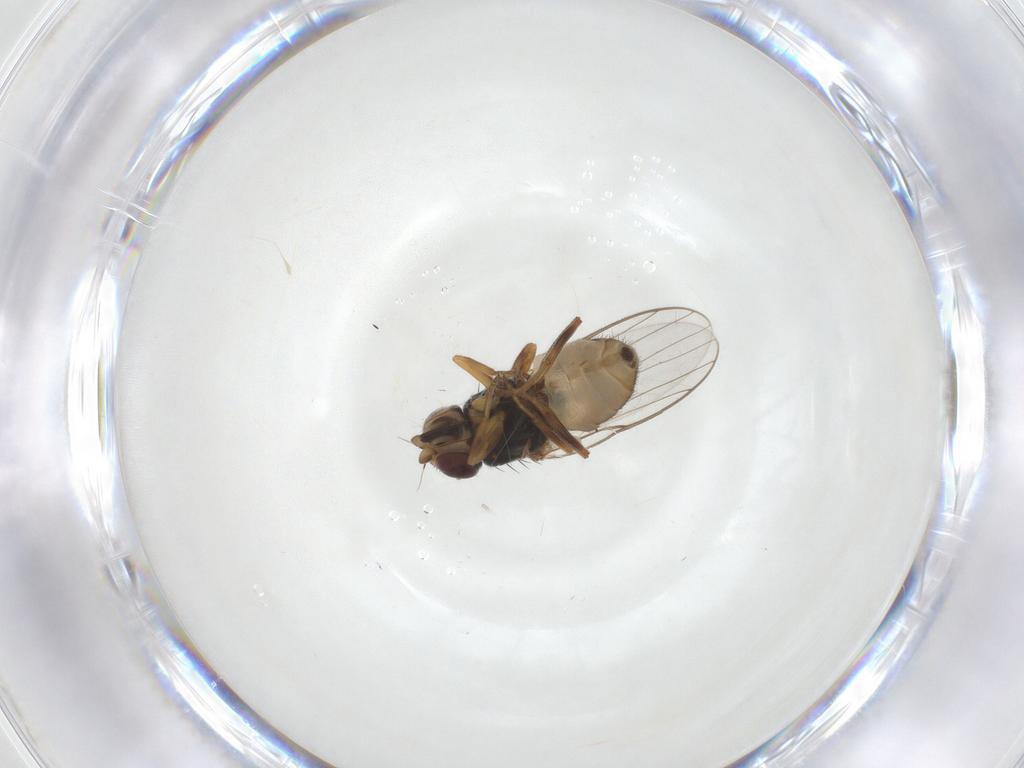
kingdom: Animalia
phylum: Arthropoda
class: Insecta
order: Diptera
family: Chloropidae
